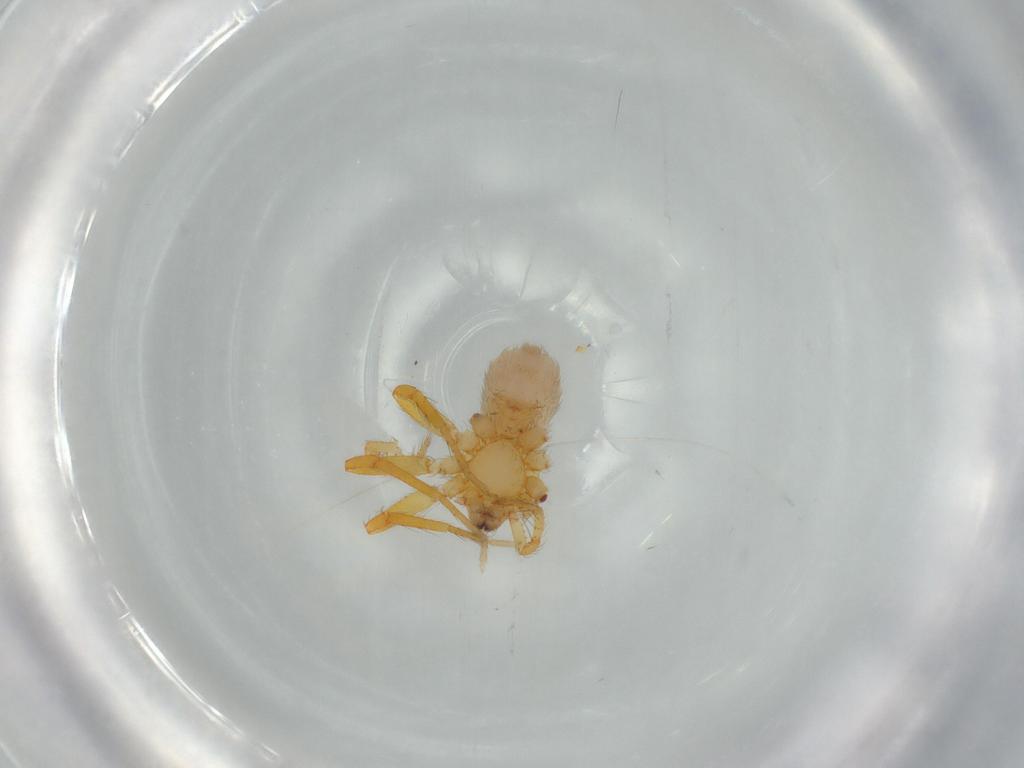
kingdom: Animalia
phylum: Arthropoda
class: Arachnida
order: Araneae
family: Oonopidae
